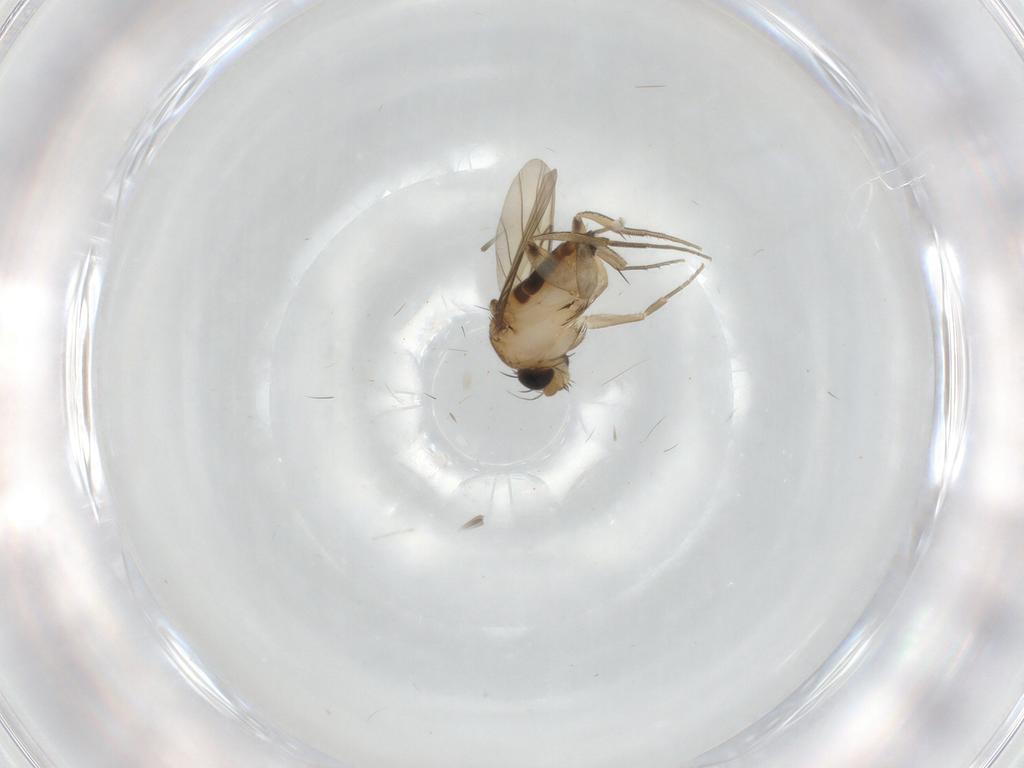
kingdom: Animalia
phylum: Arthropoda
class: Insecta
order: Diptera
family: Phoridae
